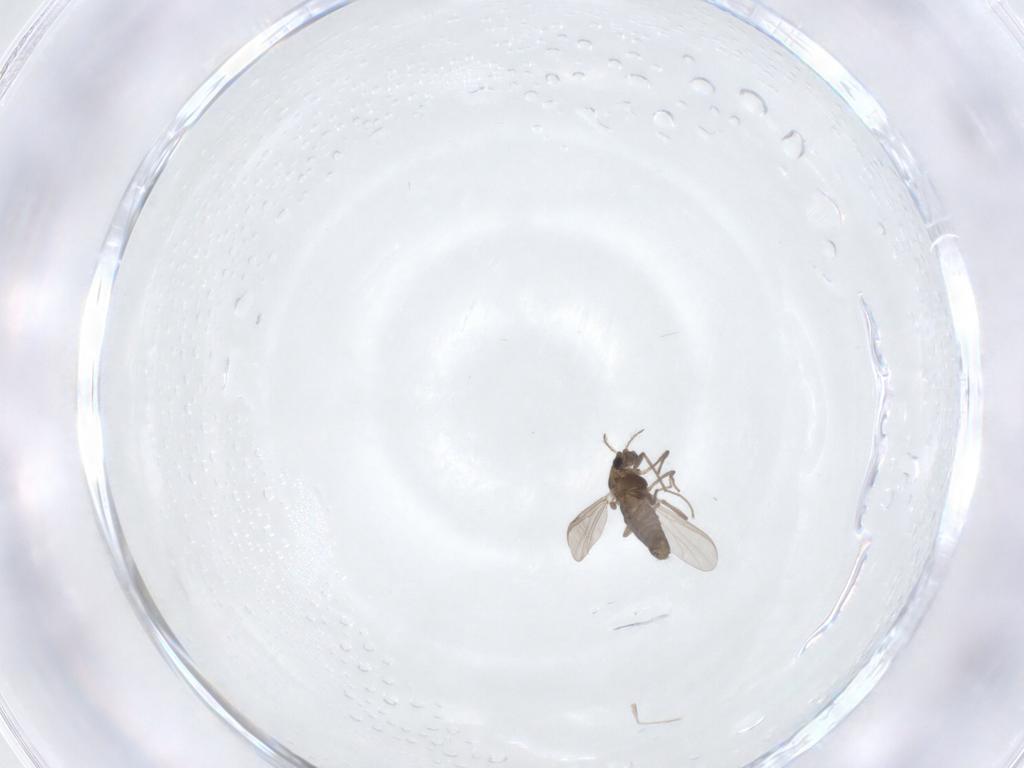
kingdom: Animalia
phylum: Arthropoda
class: Insecta
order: Diptera
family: Chironomidae
